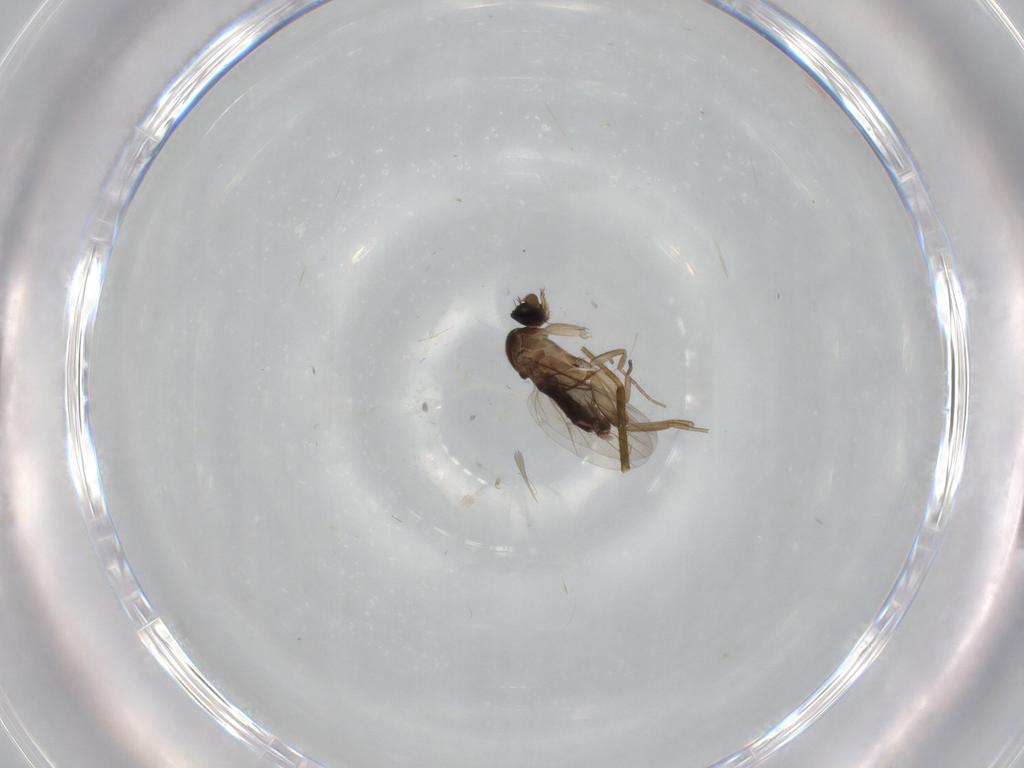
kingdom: Animalia
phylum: Arthropoda
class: Insecta
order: Diptera
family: Phoridae
